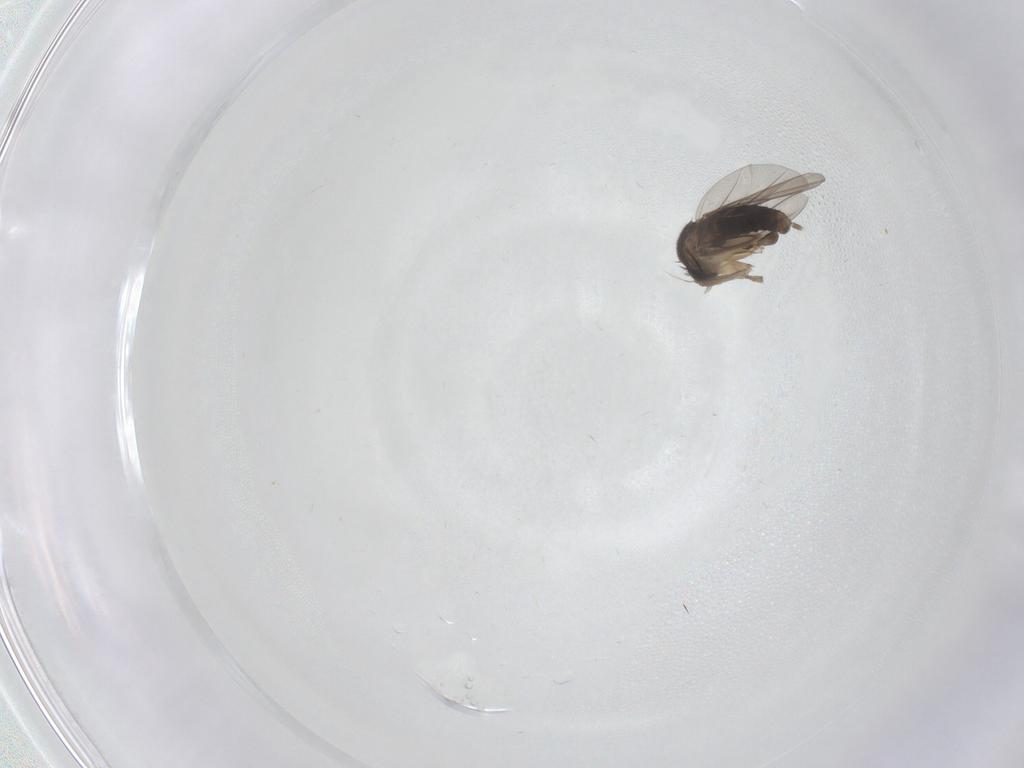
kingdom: Animalia
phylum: Arthropoda
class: Insecta
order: Diptera
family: Cecidomyiidae
